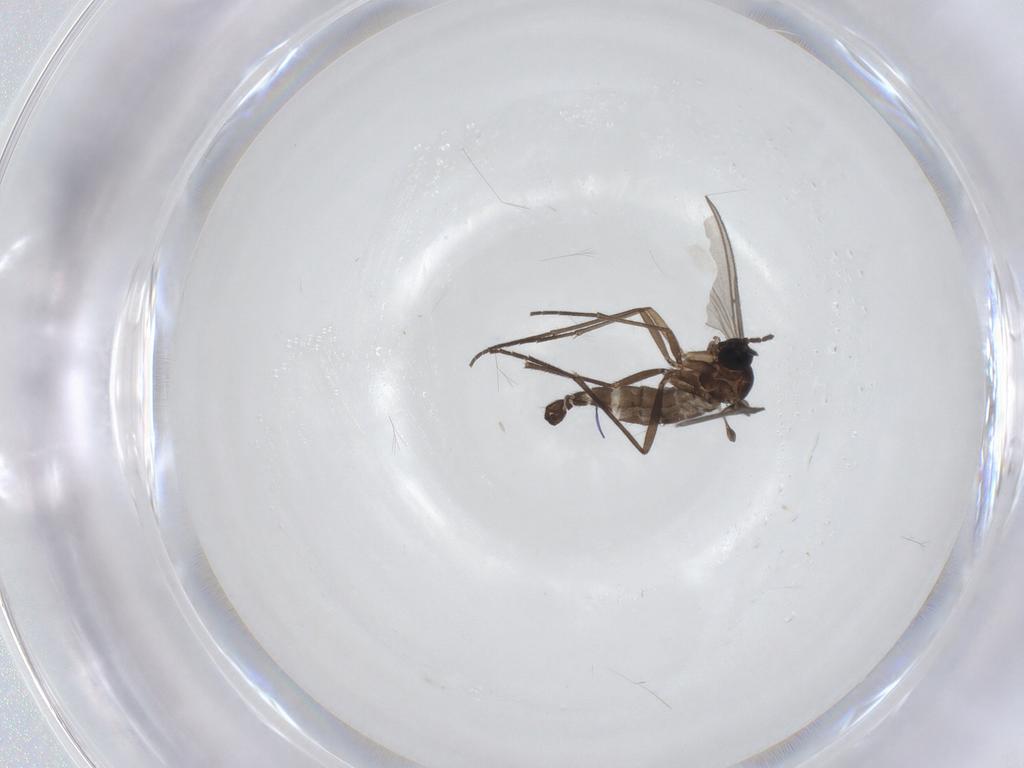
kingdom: Animalia
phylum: Arthropoda
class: Insecta
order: Diptera
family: Sciaridae
